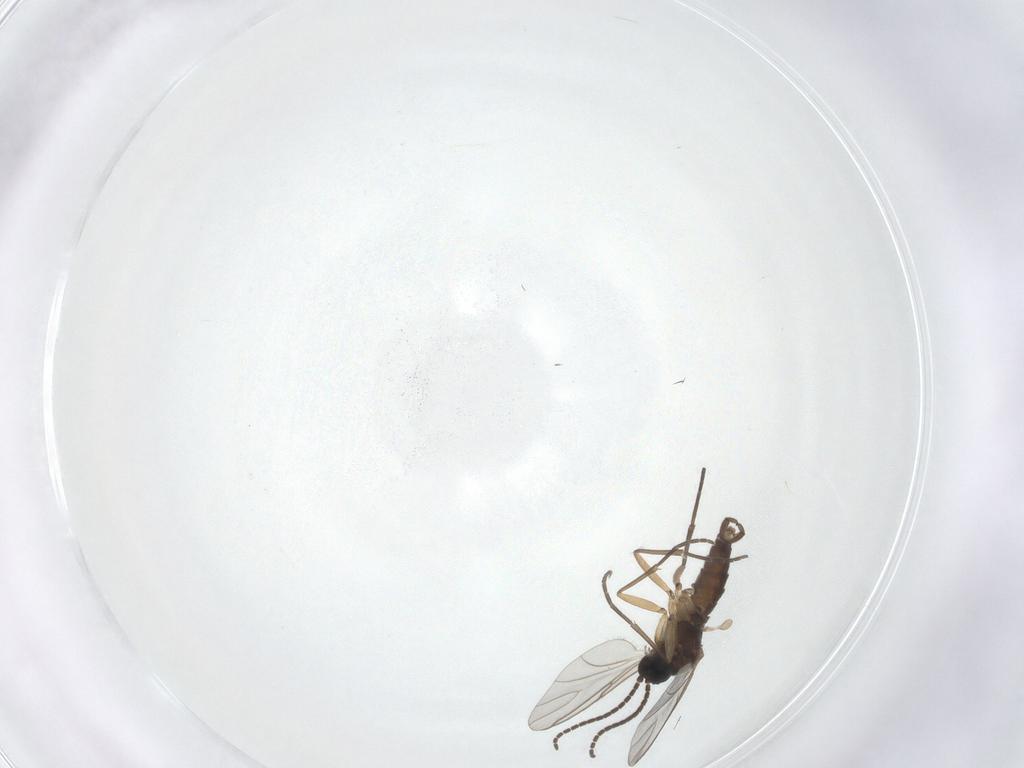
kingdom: Animalia
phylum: Arthropoda
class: Insecta
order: Diptera
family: Sciaridae
